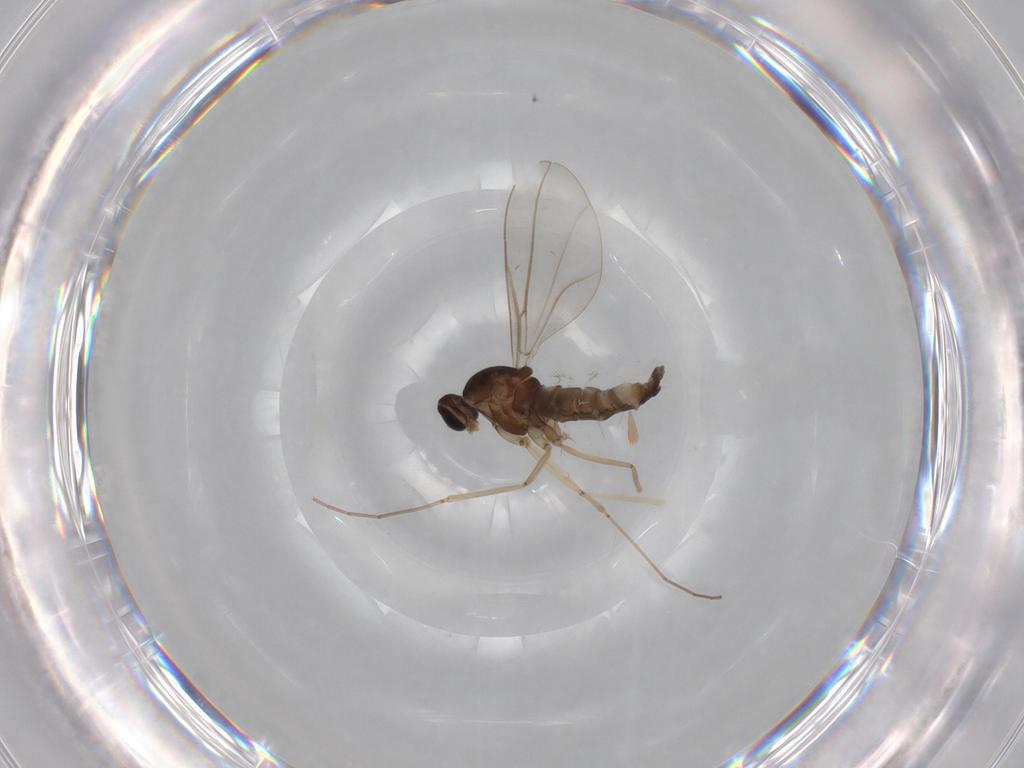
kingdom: Animalia
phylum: Arthropoda
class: Insecta
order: Diptera
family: Cecidomyiidae
